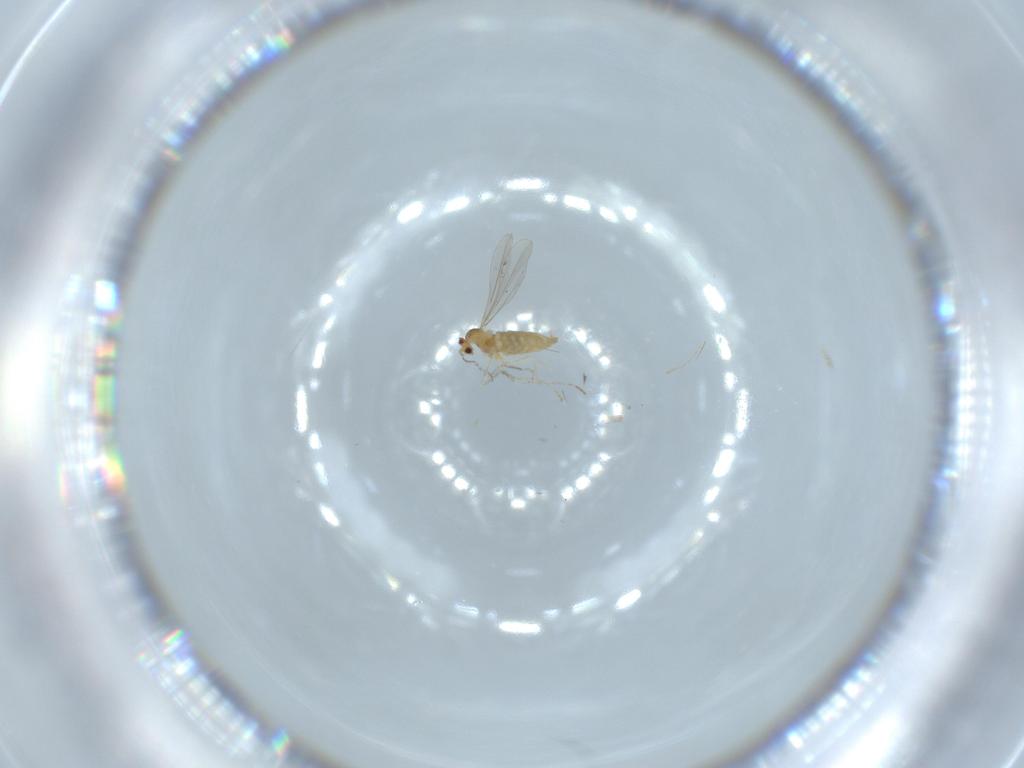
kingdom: Animalia
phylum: Arthropoda
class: Insecta
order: Diptera
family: Cecidomyiidae
